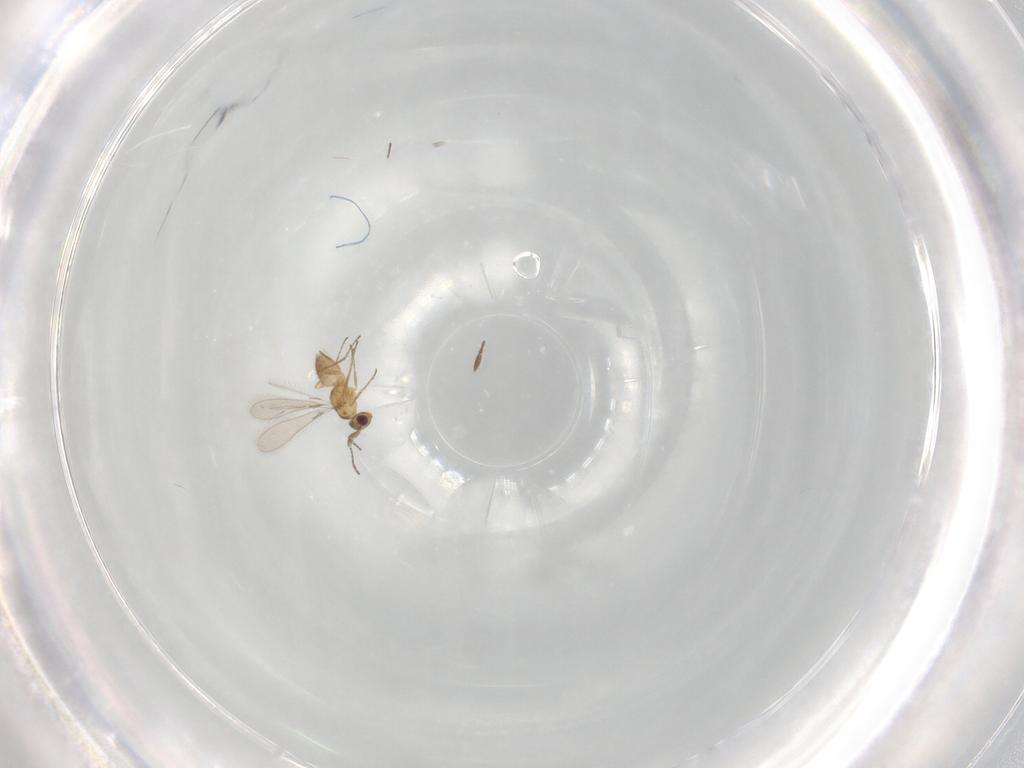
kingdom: Animalia
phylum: Arthropoda
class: Insecta
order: Hymenoptera
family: Mymaridae
